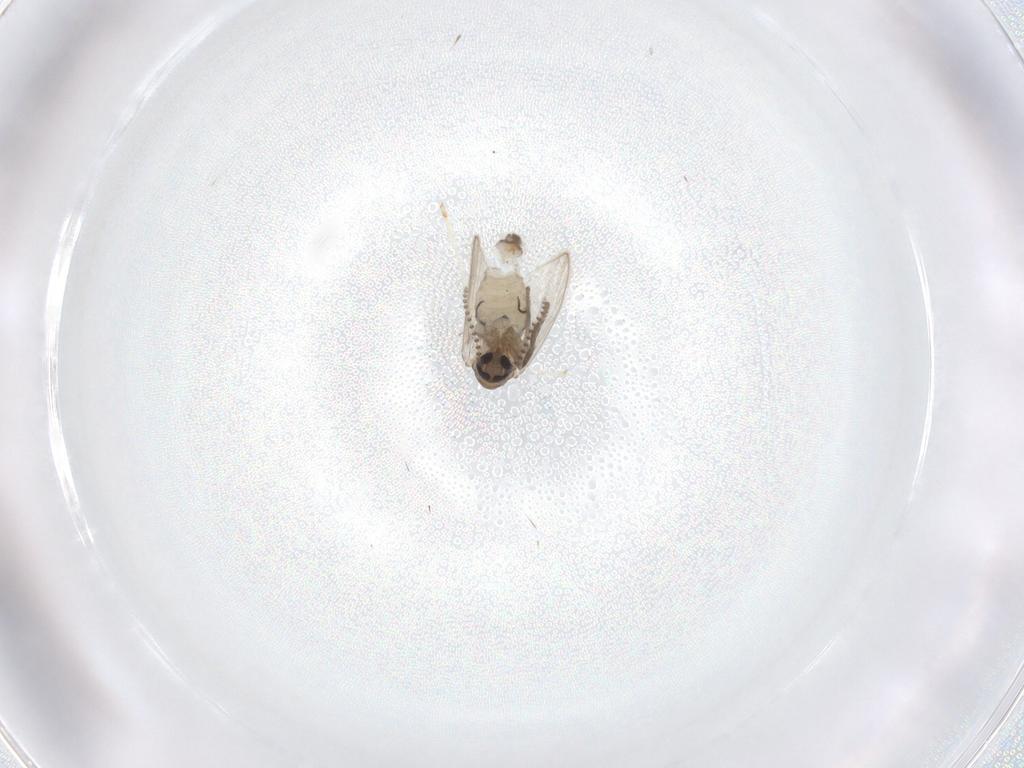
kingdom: Animalia
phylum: Arthropoda
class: Insecta
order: Diptera
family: Psychodidae
